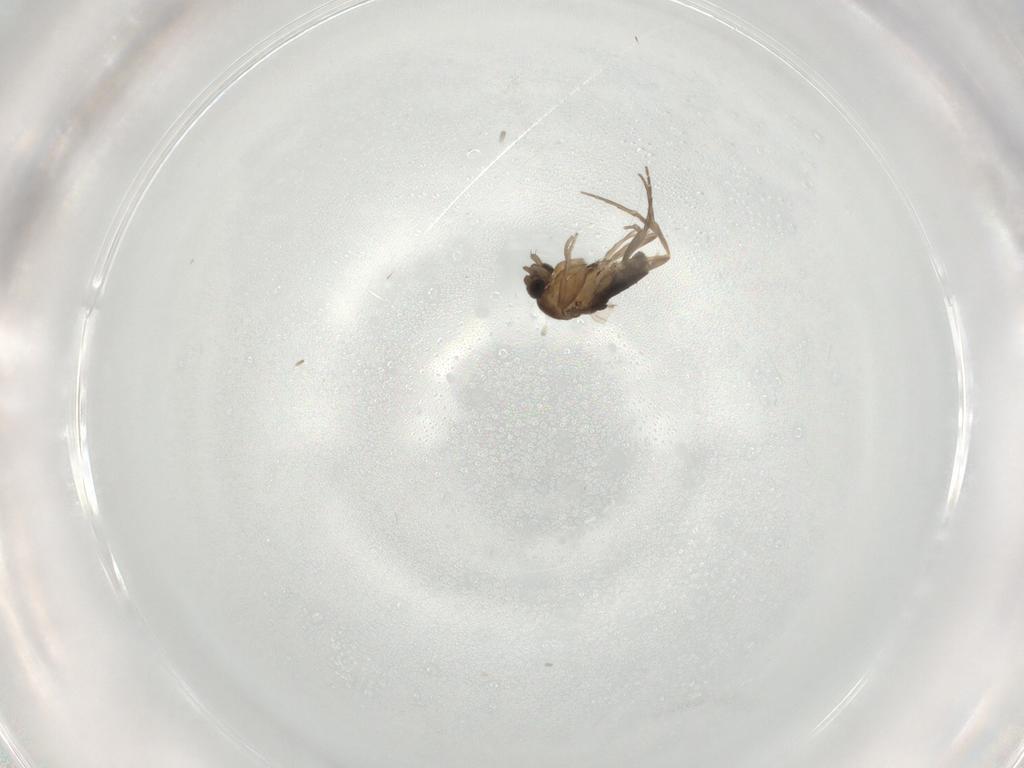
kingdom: Animalia
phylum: Arthropoda
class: Insecta
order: Diptera
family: Phoridae
